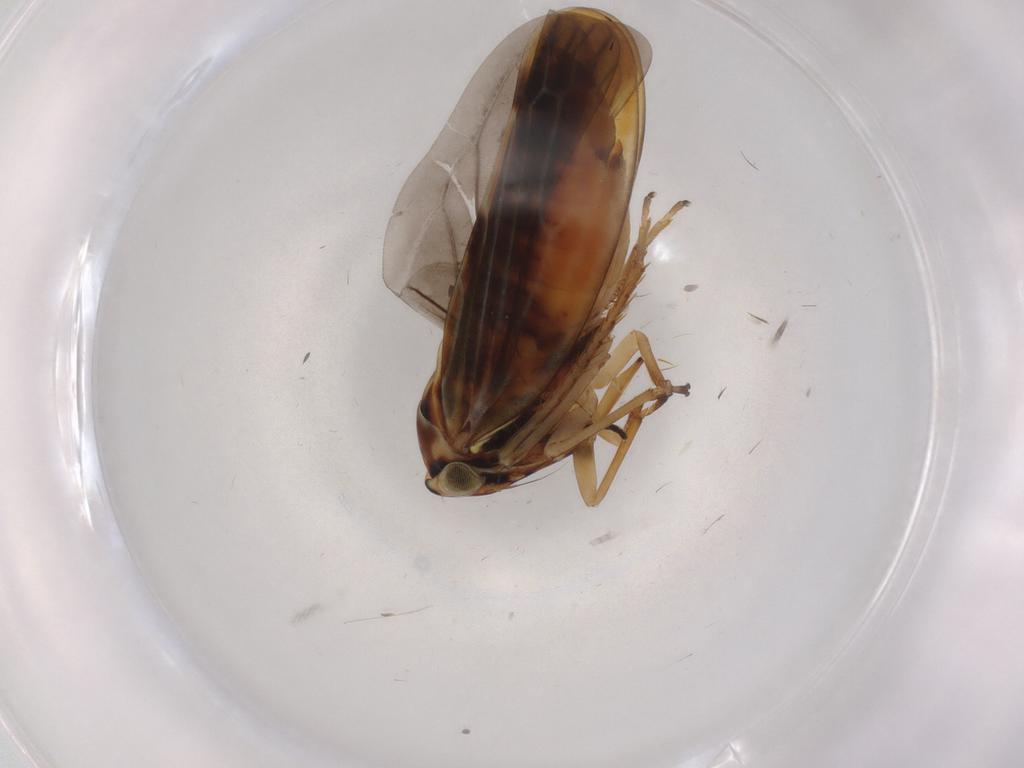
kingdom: Animalia
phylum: Arthropoda
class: Insecta
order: Hemiptera
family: Cicadellidae
